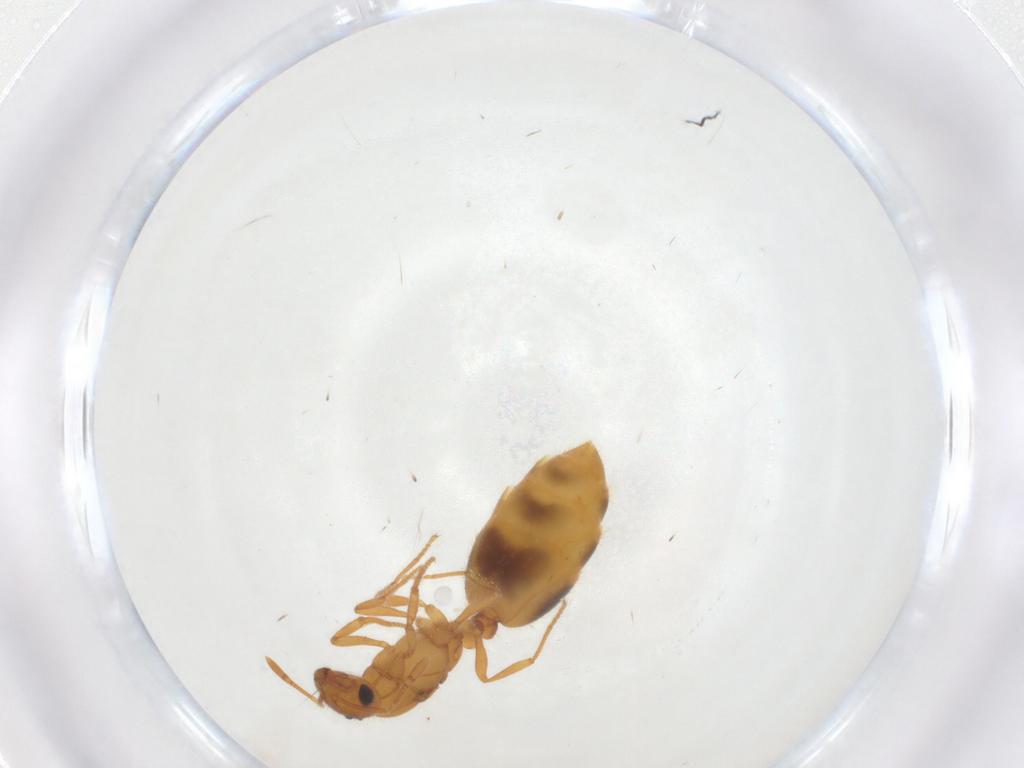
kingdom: Animalia
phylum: Arthropoda
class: Insecta
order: Hymenoptera
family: Formicidae
